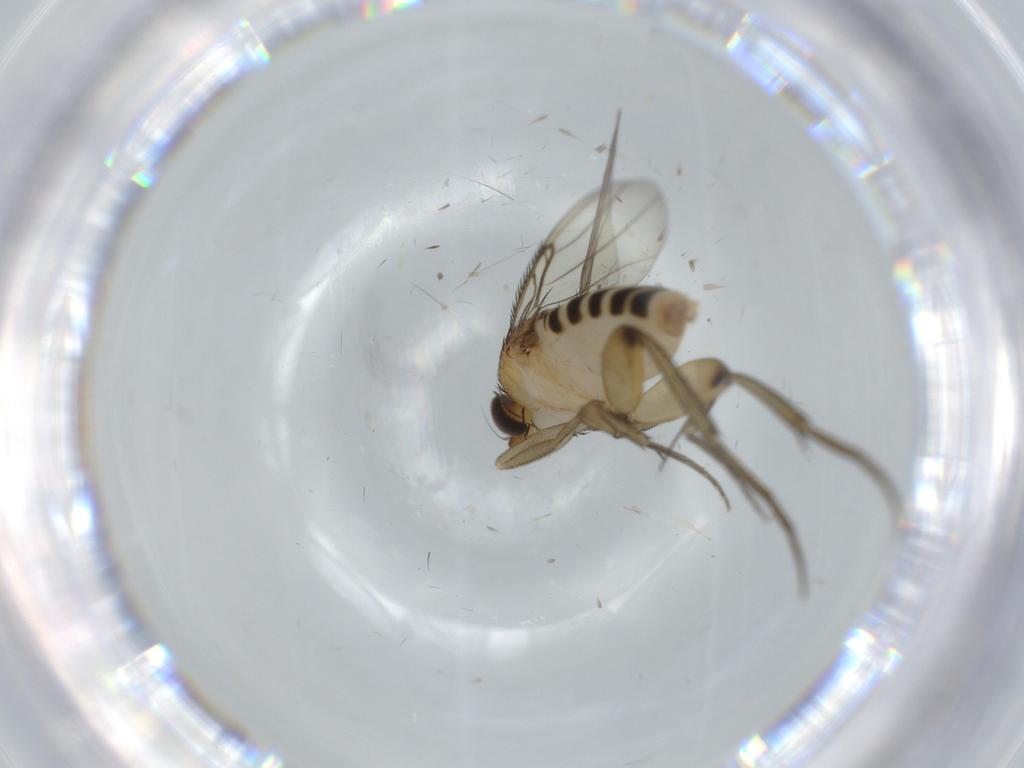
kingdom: Animalia
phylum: Arthropoda
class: Insecta
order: Diptera
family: Phoridae
